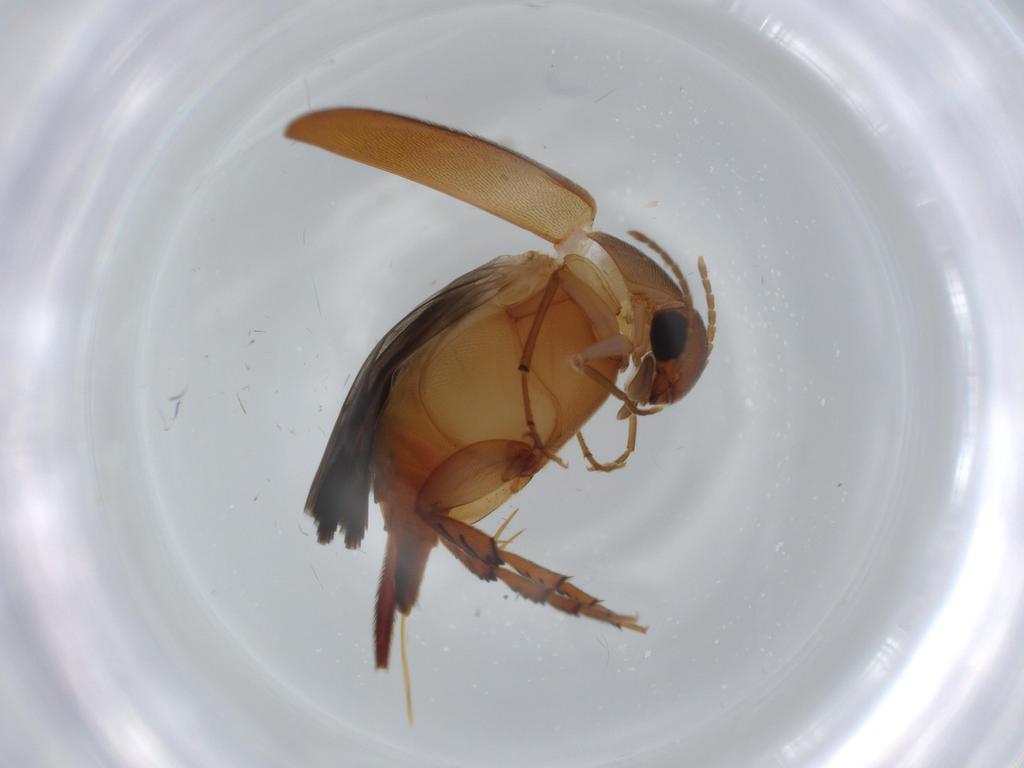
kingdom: Animalia
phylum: Arthropoda
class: Insecta
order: Coleoptera
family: Mordellidae
